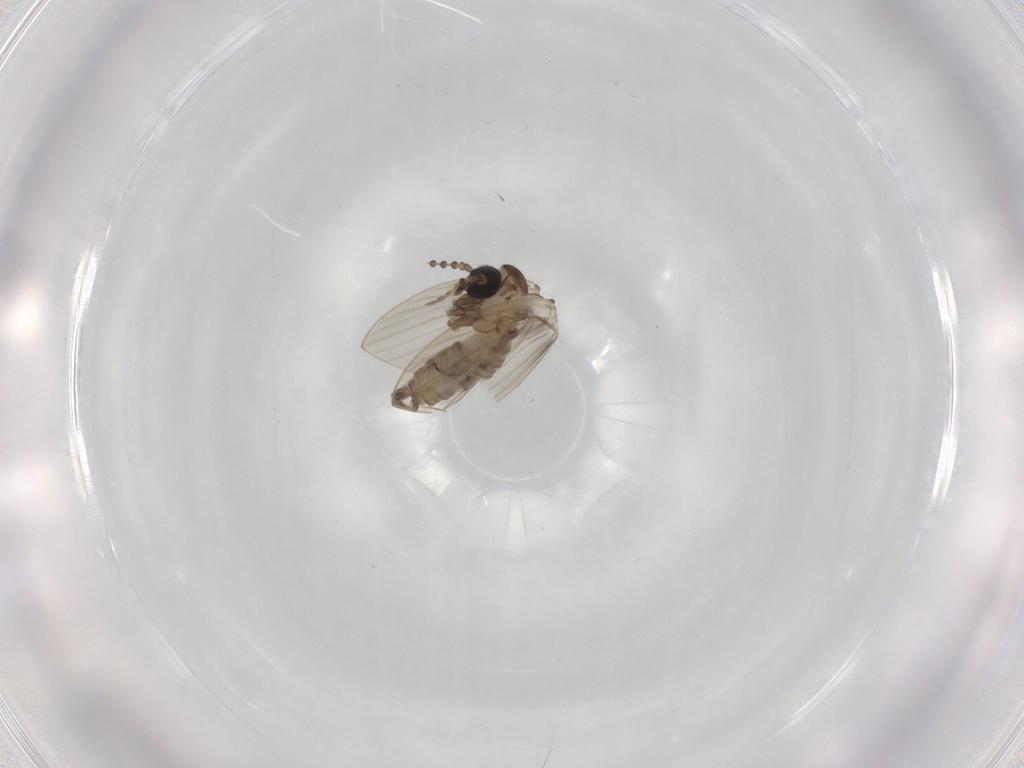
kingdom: Animalia
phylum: Arthropoda
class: Insecta
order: Diptera
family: Psychodidae
